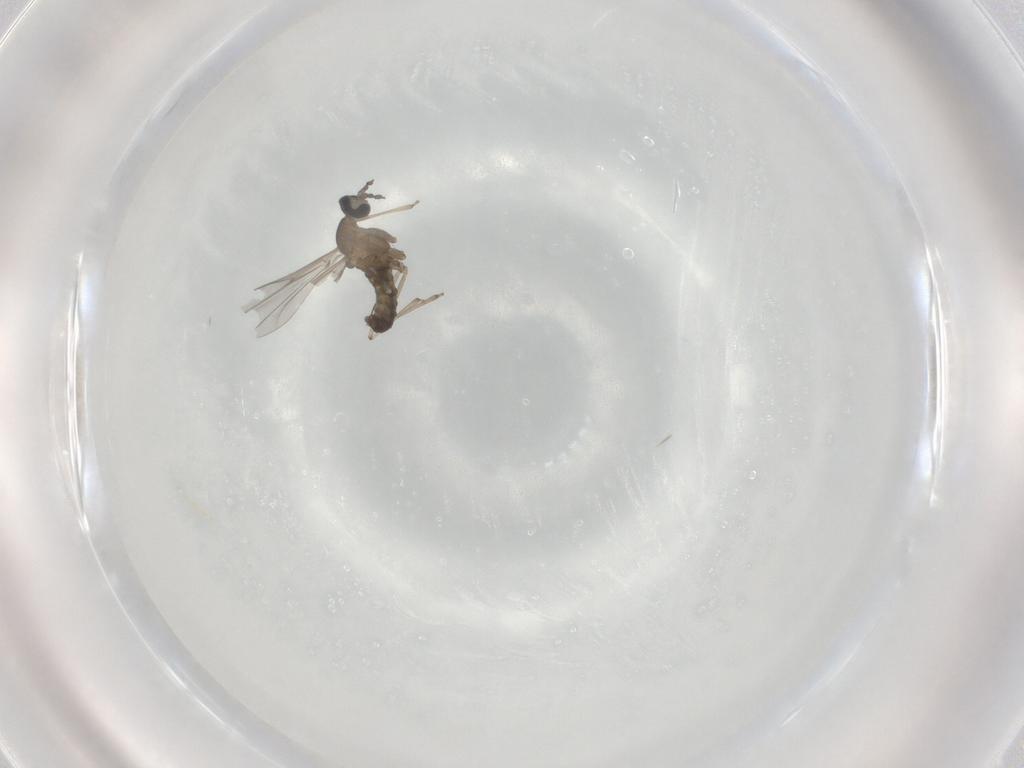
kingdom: Animalia
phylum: Arthropoda
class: Insecta
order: Diptera
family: Cecidomyiidae
